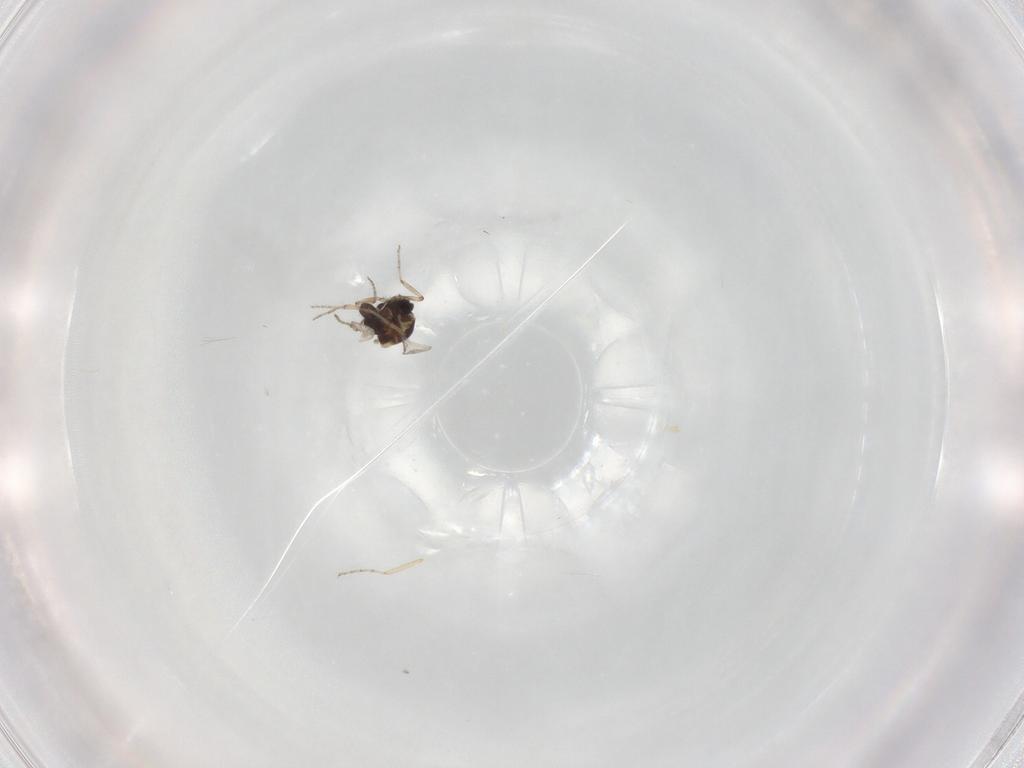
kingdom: Animalia
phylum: Arthropoda
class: Insecta
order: Diptera
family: Ceratopogonidae
